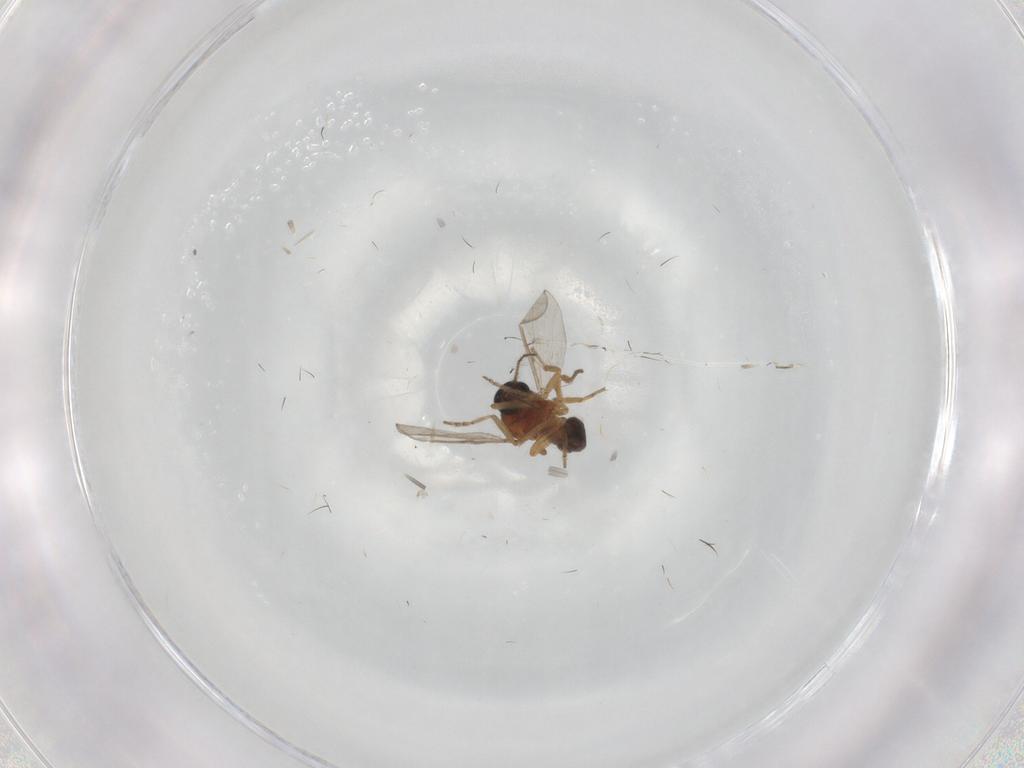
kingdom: Animalia
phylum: Arthropoda
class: Insecta
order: Diptera
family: Ceratopogonidae
